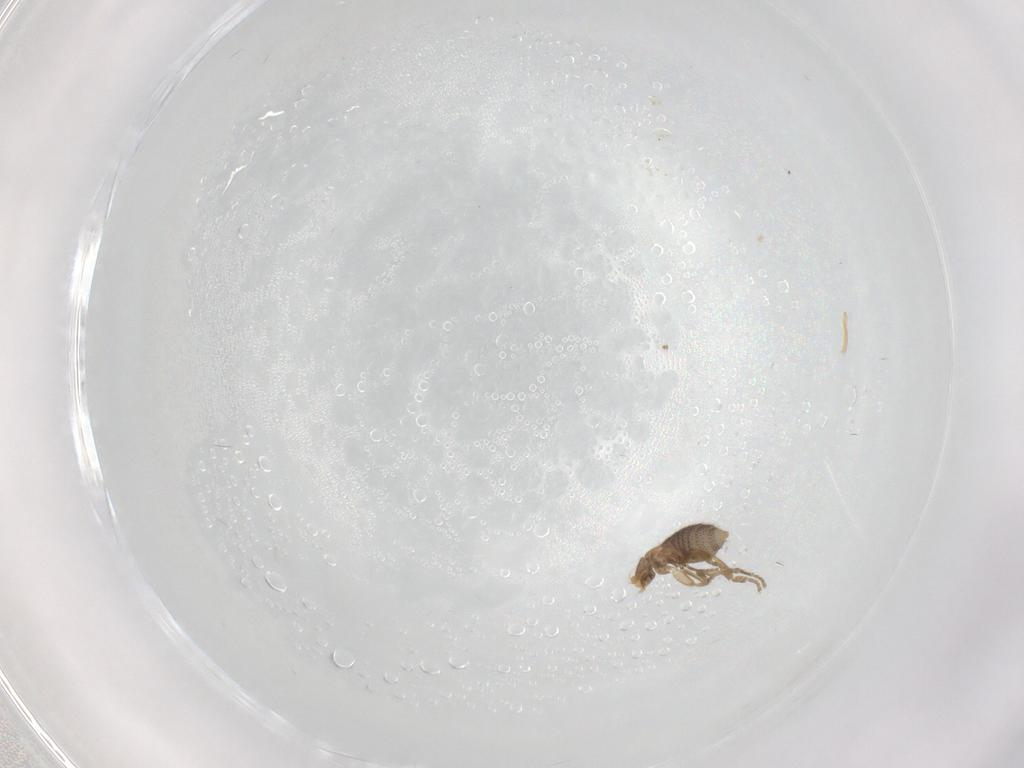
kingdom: Animalia
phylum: Arthropoda
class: Insecta
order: Diptera
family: Phoridae
